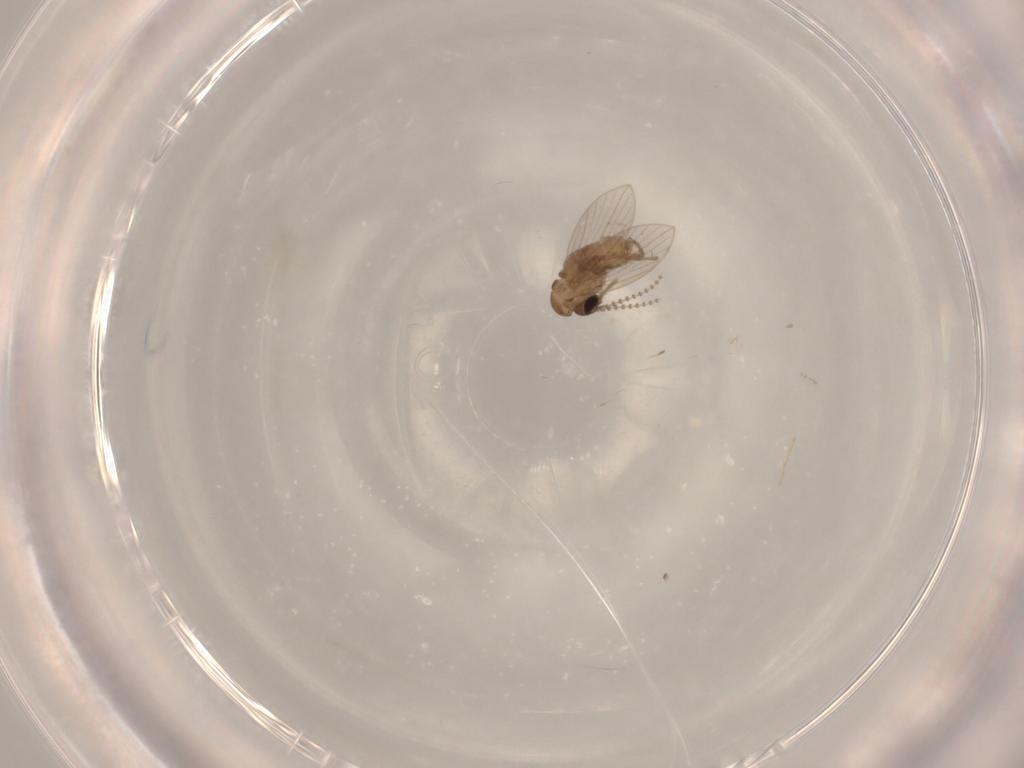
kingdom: Animalia
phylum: Arthropoda
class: Insecta
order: Diptera
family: Psychodidae
